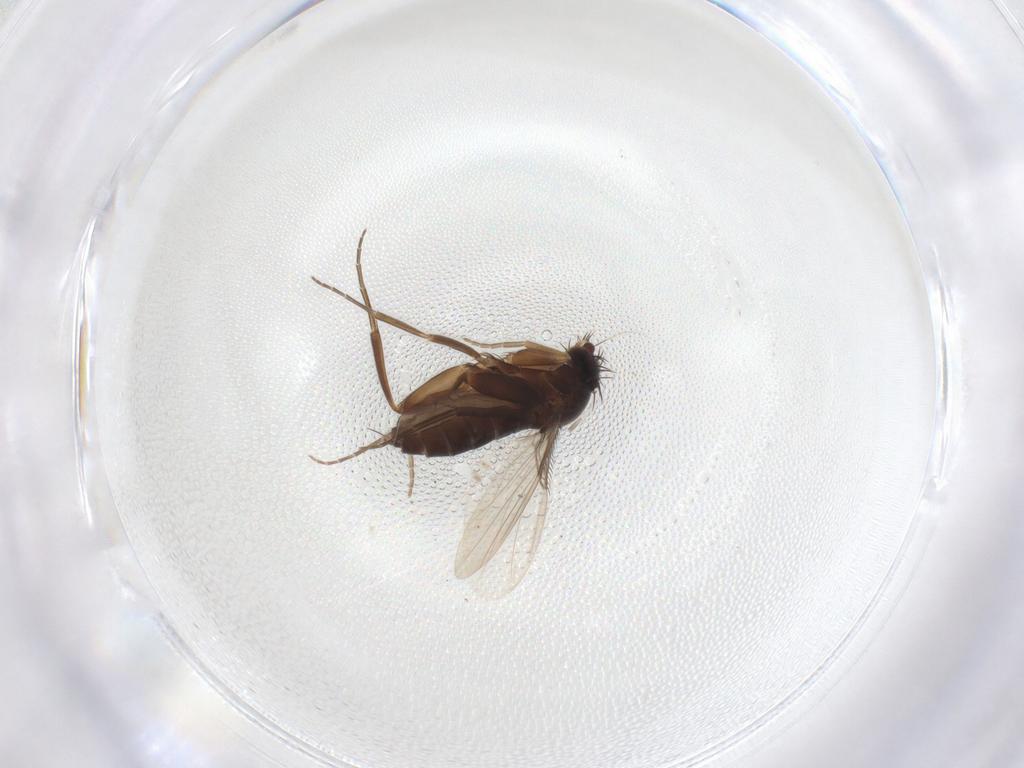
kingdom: Animalia
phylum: Arthropoda
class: Insecta
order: Diptera
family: Phoridae
